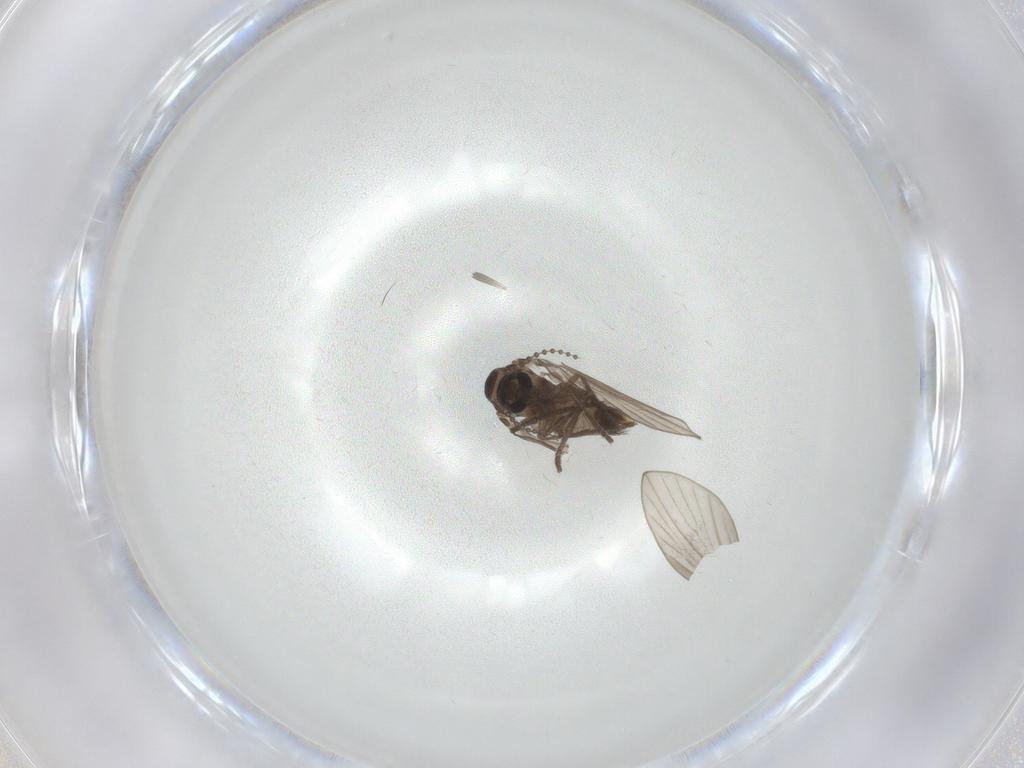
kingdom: Animalia
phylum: Arthropoda
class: Insecta
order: Diptera
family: Psychodidae
